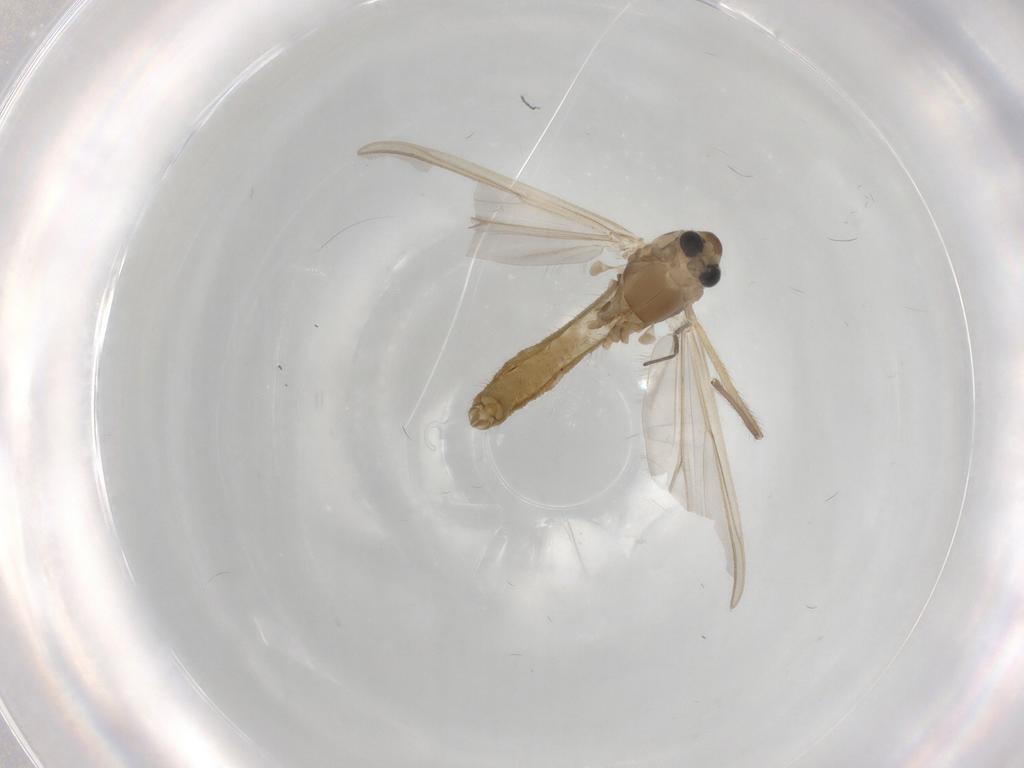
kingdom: Animalia
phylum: Arthropoda
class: Insecta
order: Diptera
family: Chironomidae
